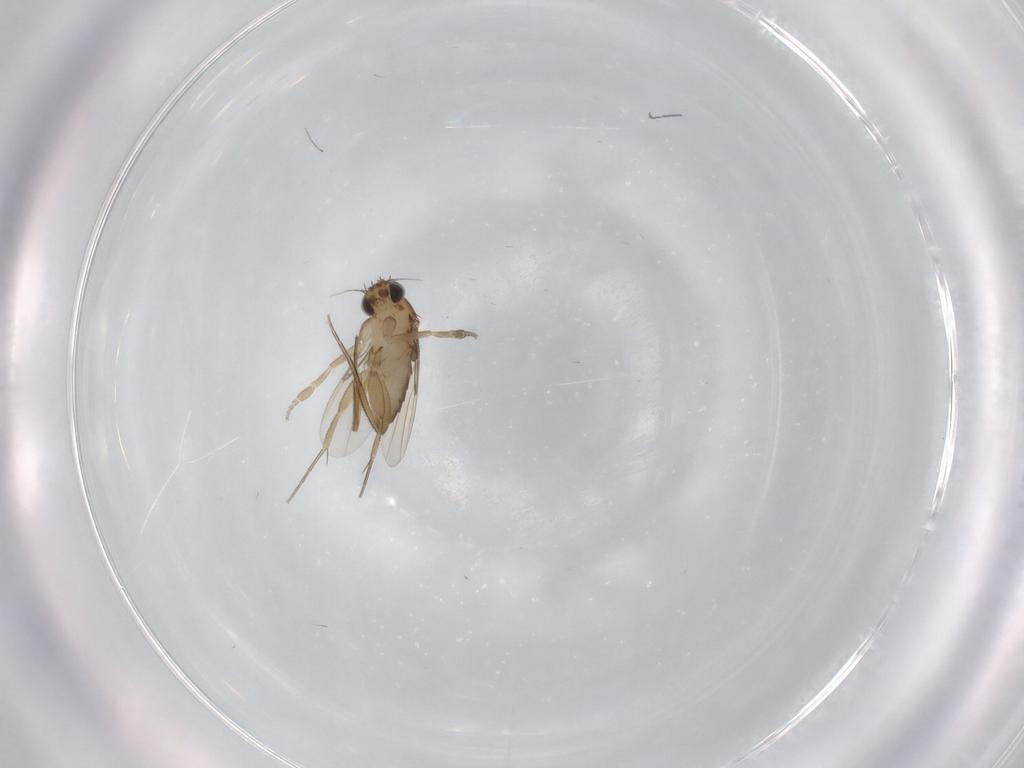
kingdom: Animalia
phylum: Arthropoda
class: Insecta
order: Diptera
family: Phoridae
